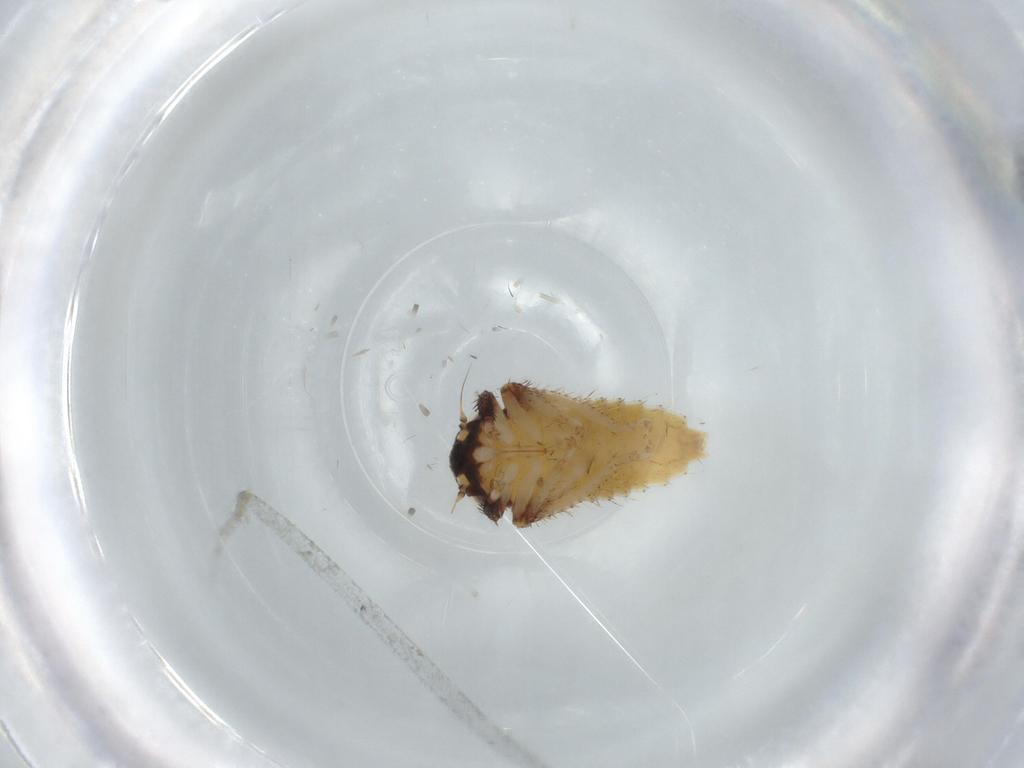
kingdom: Animalia
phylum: Arthropoda
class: Insecta
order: Hemiptera
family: Cicadellidae
